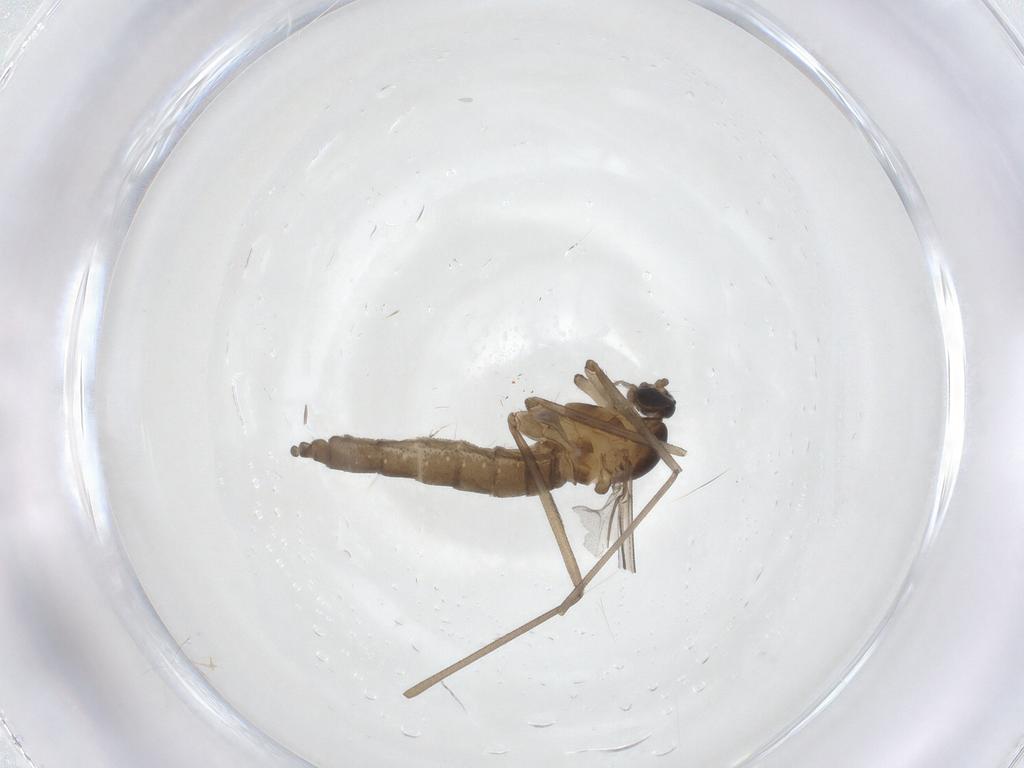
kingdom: Animalia
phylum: Arthropoda
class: Insecta
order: Diptera
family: Cecidomyiidae
